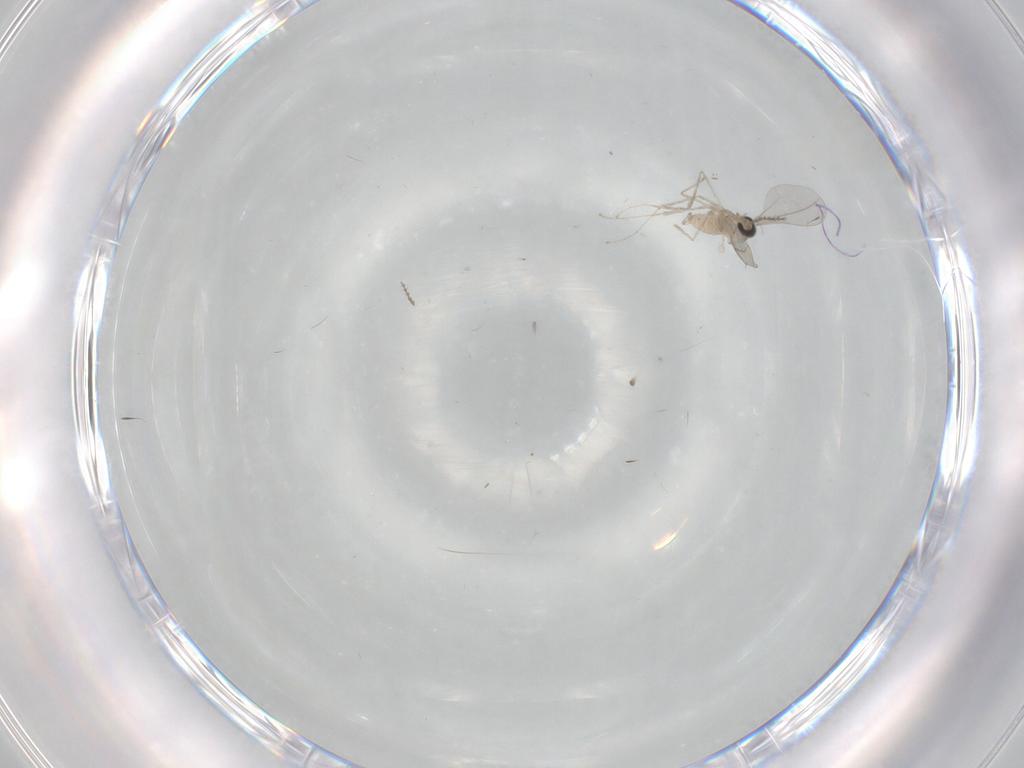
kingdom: Animalia
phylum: Arthropoda
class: Insecta
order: Diptera
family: Ceratopogonidae
